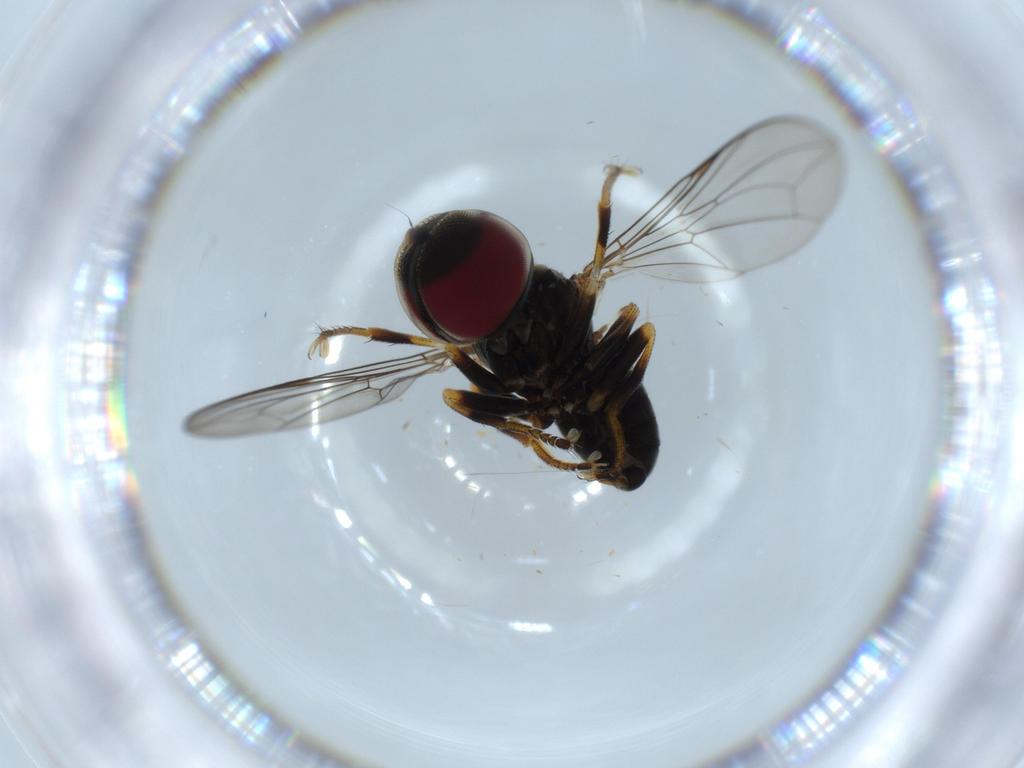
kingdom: Animalia
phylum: Arthropoda
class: Insecta
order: Diptera
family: Pipunculidae
